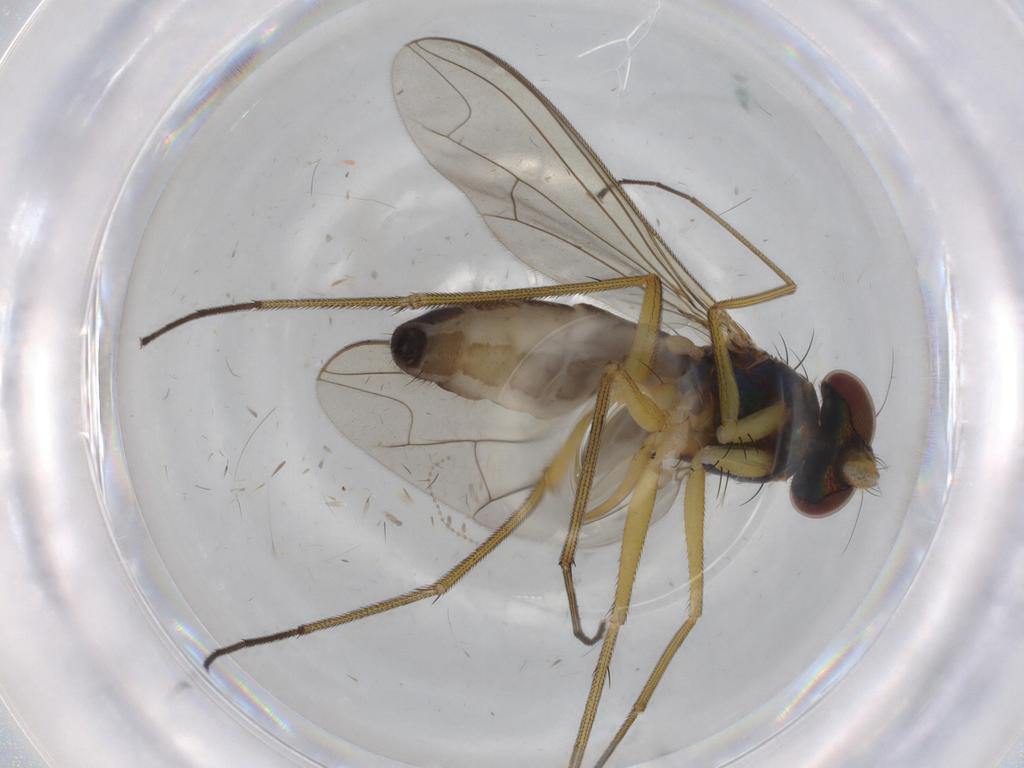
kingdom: Animalia
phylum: Arthropoda
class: Insecta
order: Diptera
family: Dolichopodidae
